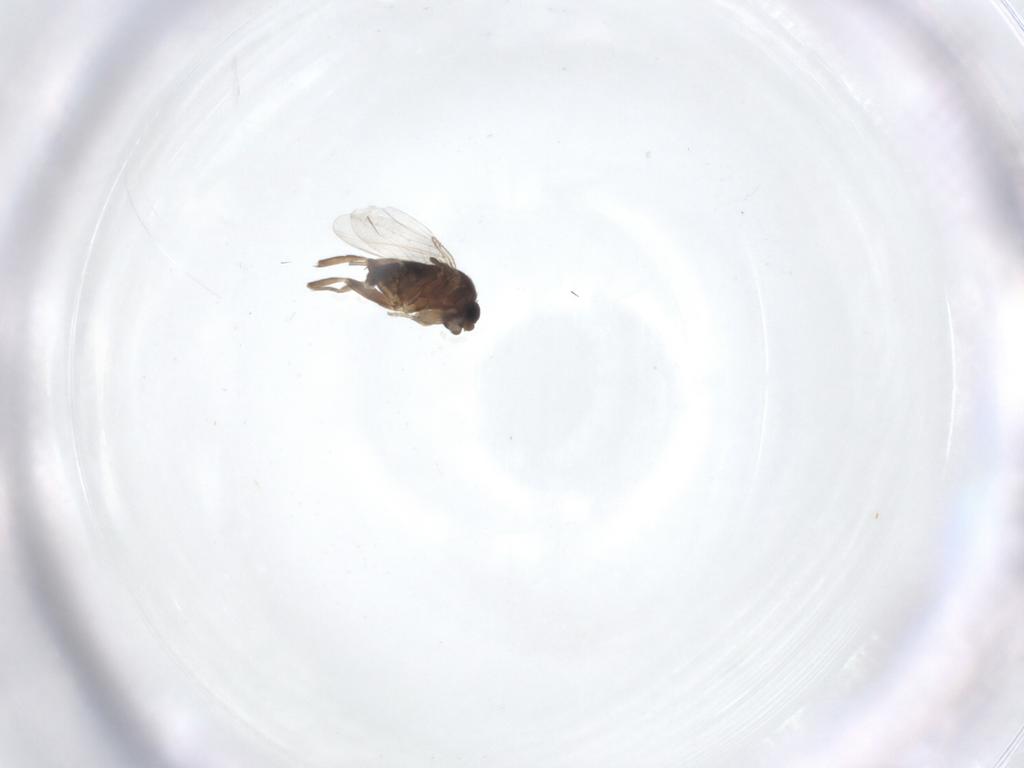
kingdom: Animalia
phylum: Arthropoda
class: Insecta
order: Diptera
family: Phoridae
